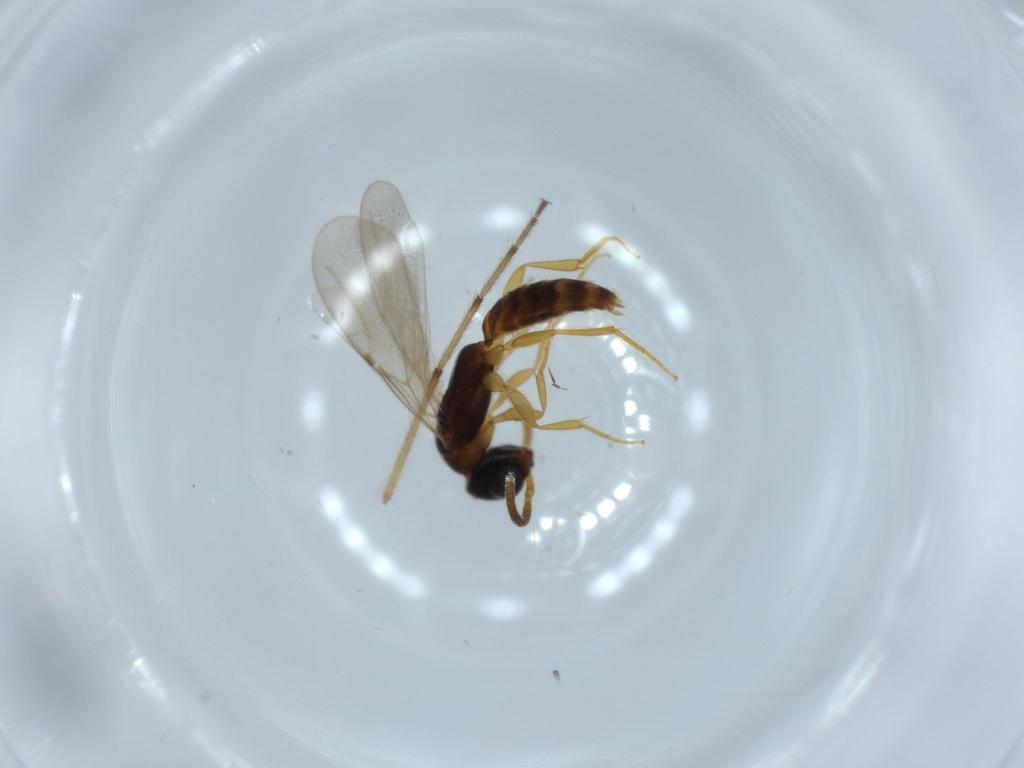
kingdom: Animalia
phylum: Arthropoda
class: Insecta
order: Hymenoptera
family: Bethylidae
